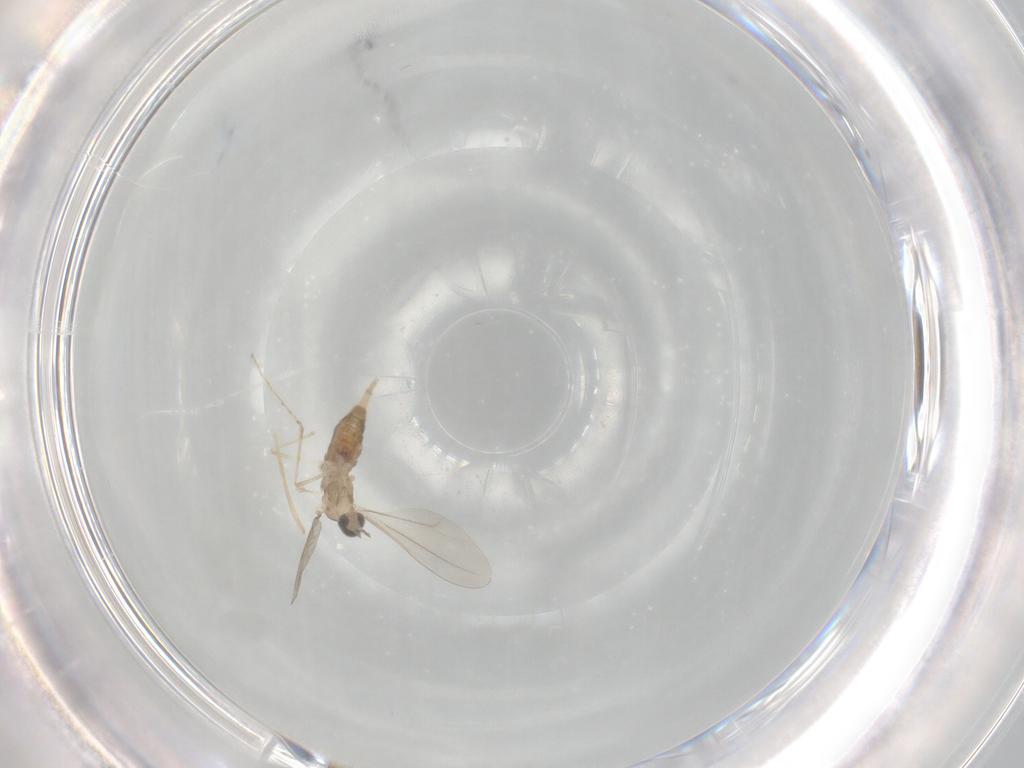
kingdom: Animalia
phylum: Arthropoda
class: Insecta
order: Diptera
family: Cecidomyiidae
